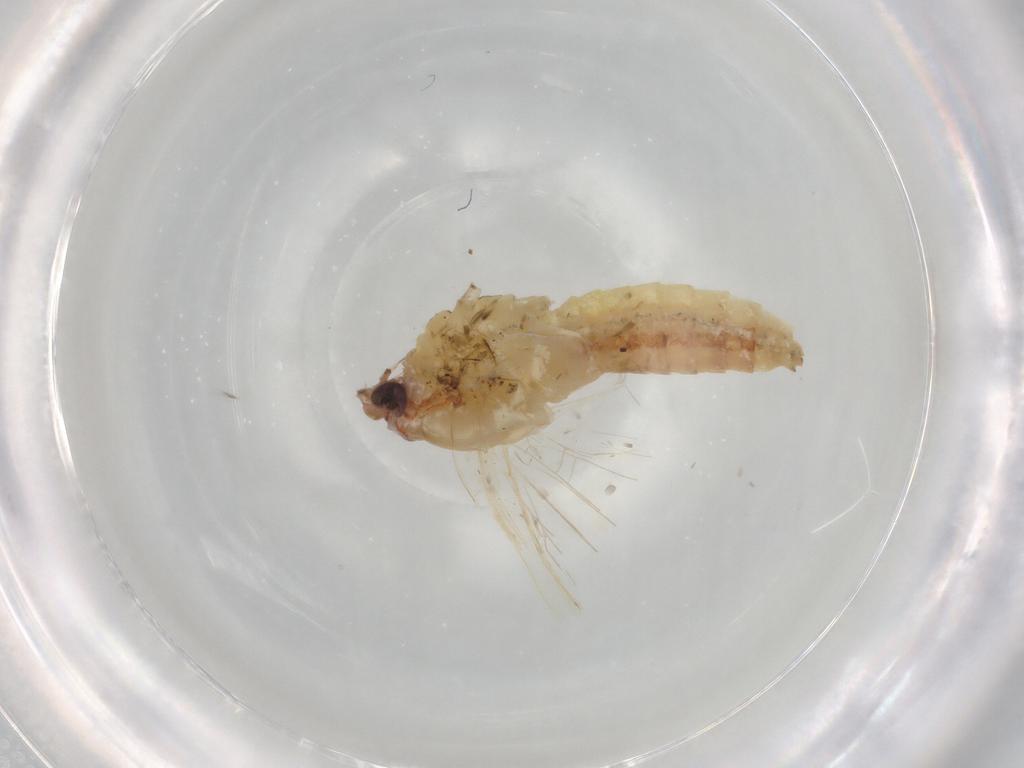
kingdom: Animalia
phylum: Arthropoda
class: Insecta
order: Ephemeroptera
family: Baetidae
